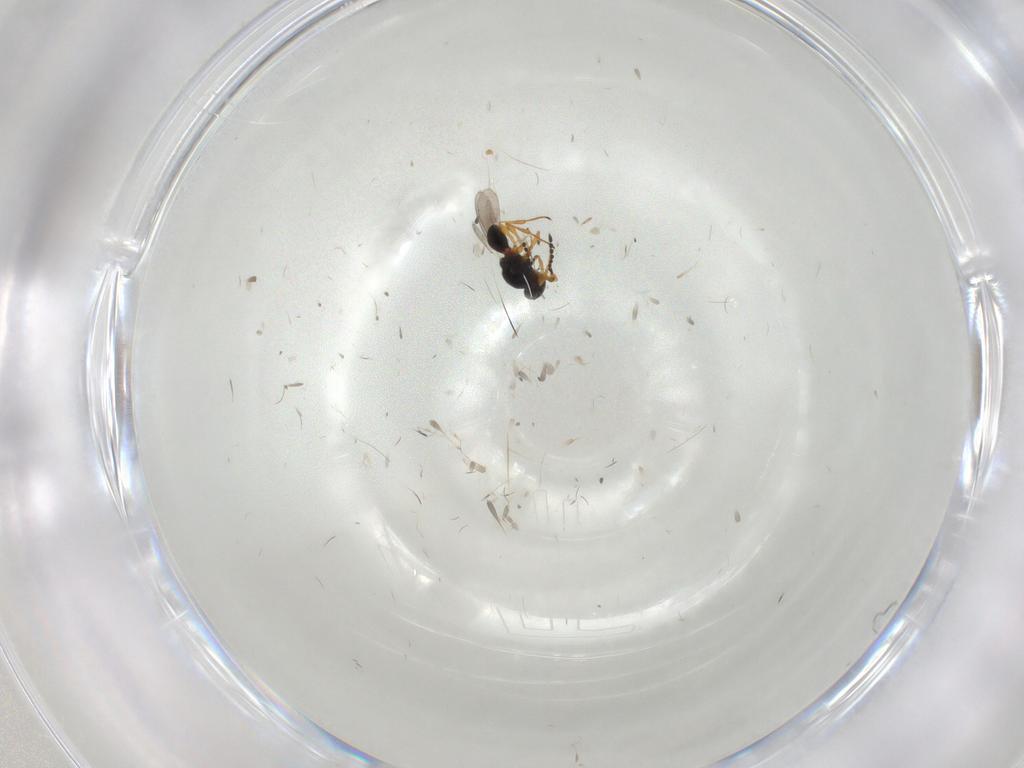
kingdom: Animalia
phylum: Arthropoda
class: Insecta
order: Hymenoptera
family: Platygastridae
